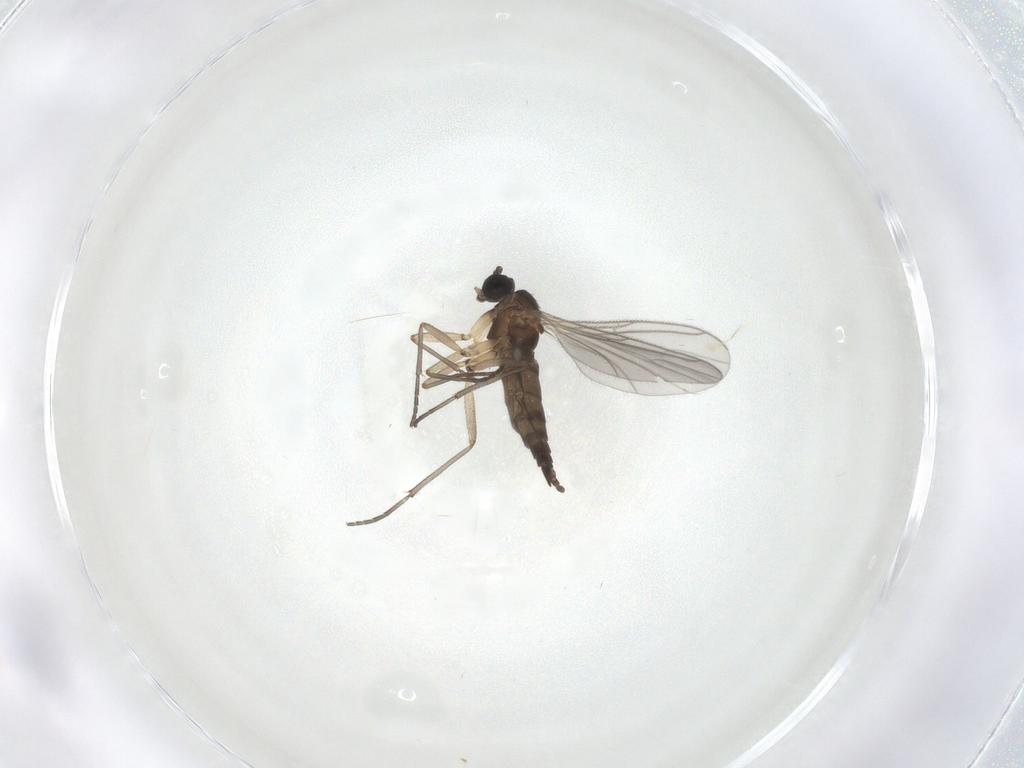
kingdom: Animalia
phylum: Arthropoda
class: Insecta
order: Diptera
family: Sciaridae
